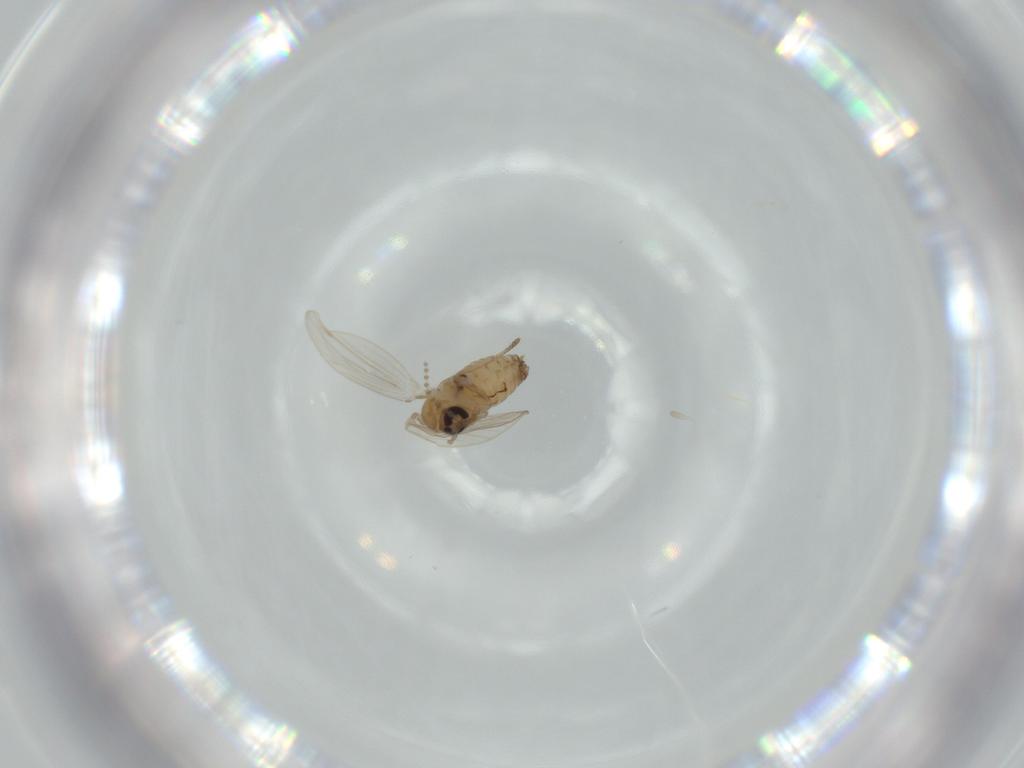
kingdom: Animalia
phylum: Arthropoda
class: Insecta
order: Diptera
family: Psychodidae
